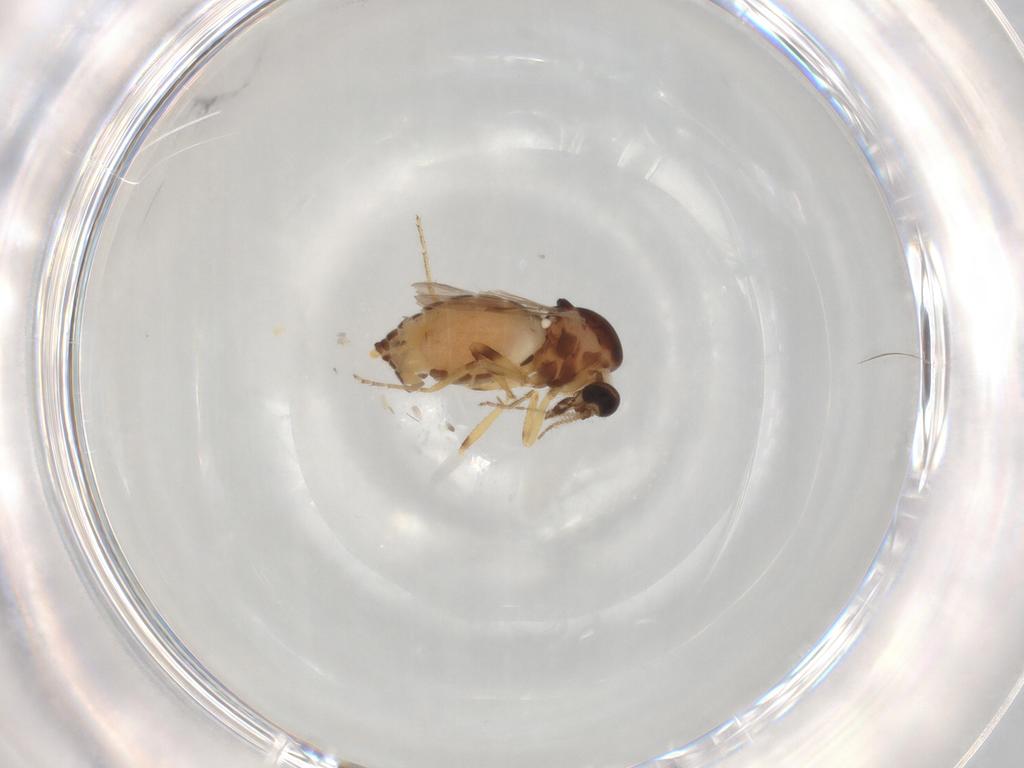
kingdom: Animalia
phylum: Arthropoda
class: Insecta
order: Diptera
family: Ceratopogonidae
